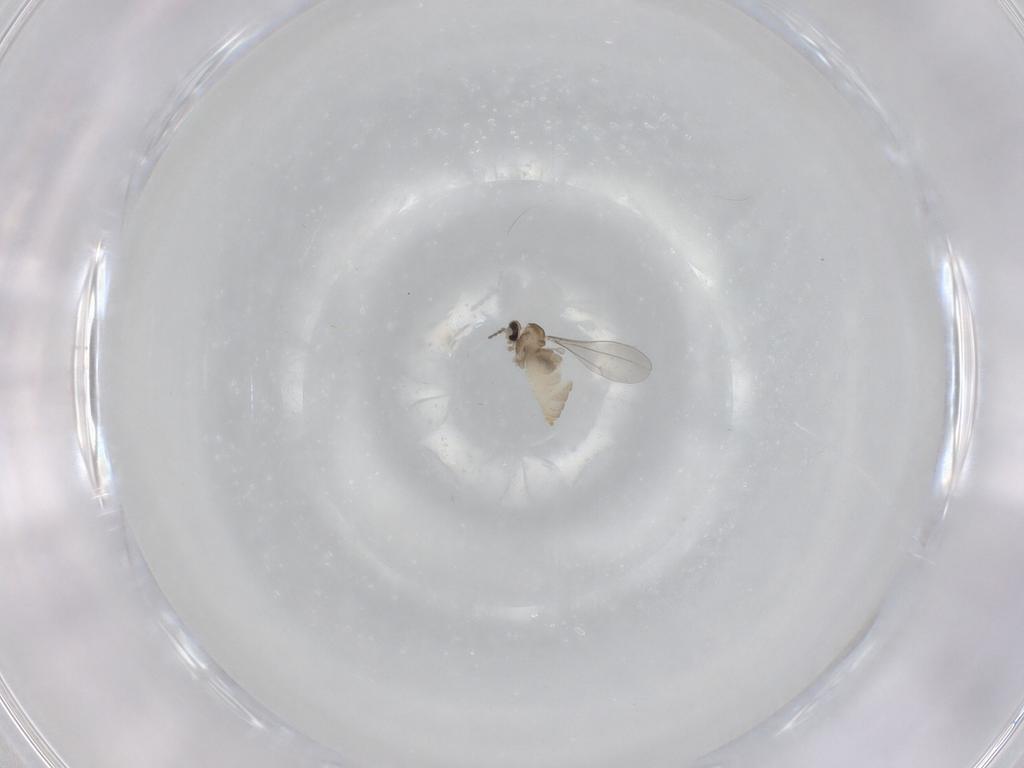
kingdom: Animalia
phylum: Arthropoda
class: Insecta
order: Diptera
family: Cecidomyiidae
